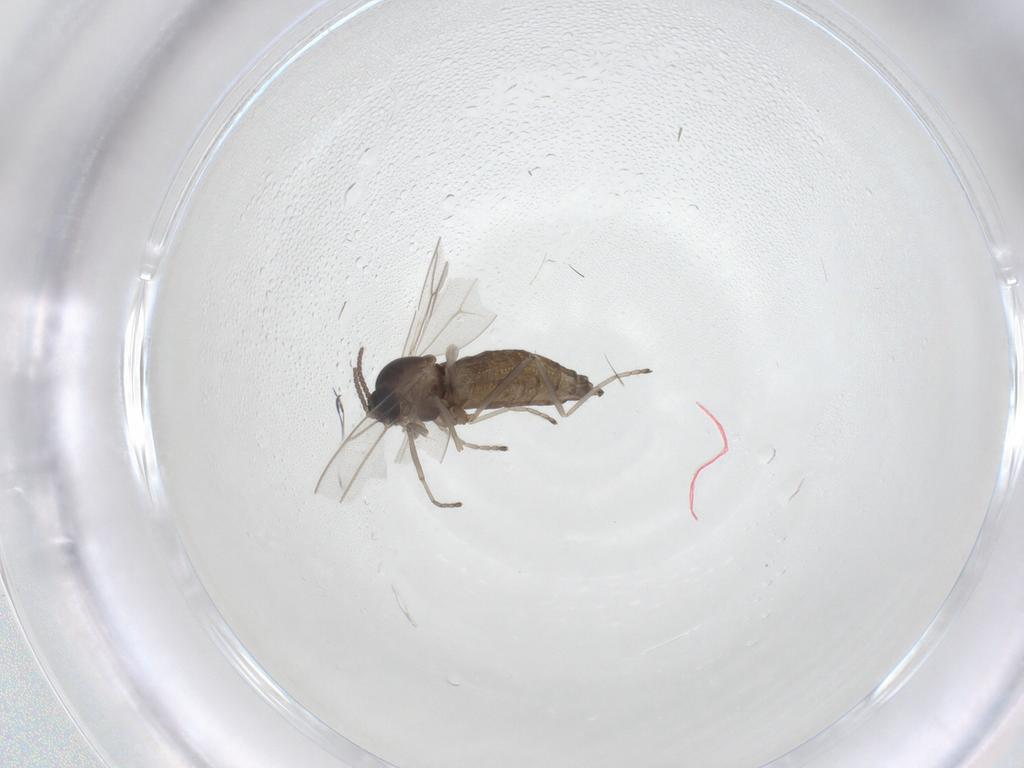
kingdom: Animalia
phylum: Arthropoda
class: Insecta
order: Diptera
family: Cecidomyiidae
